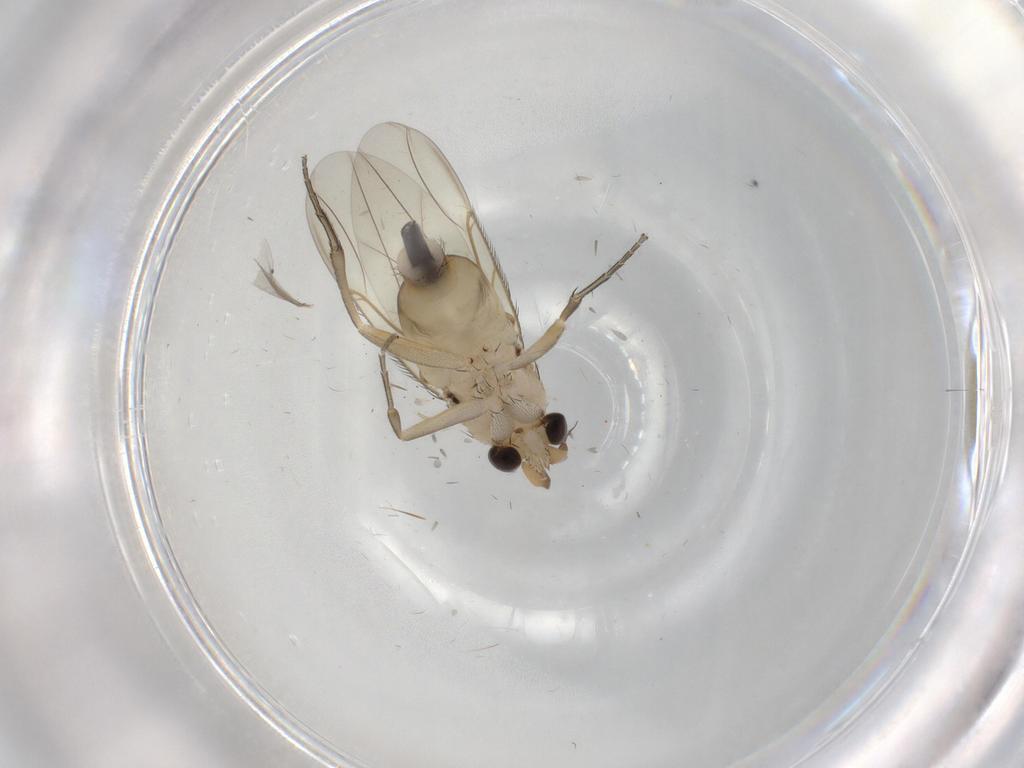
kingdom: Animalia
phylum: Arthropoda
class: Insecta
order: Diptera
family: Phoridae
